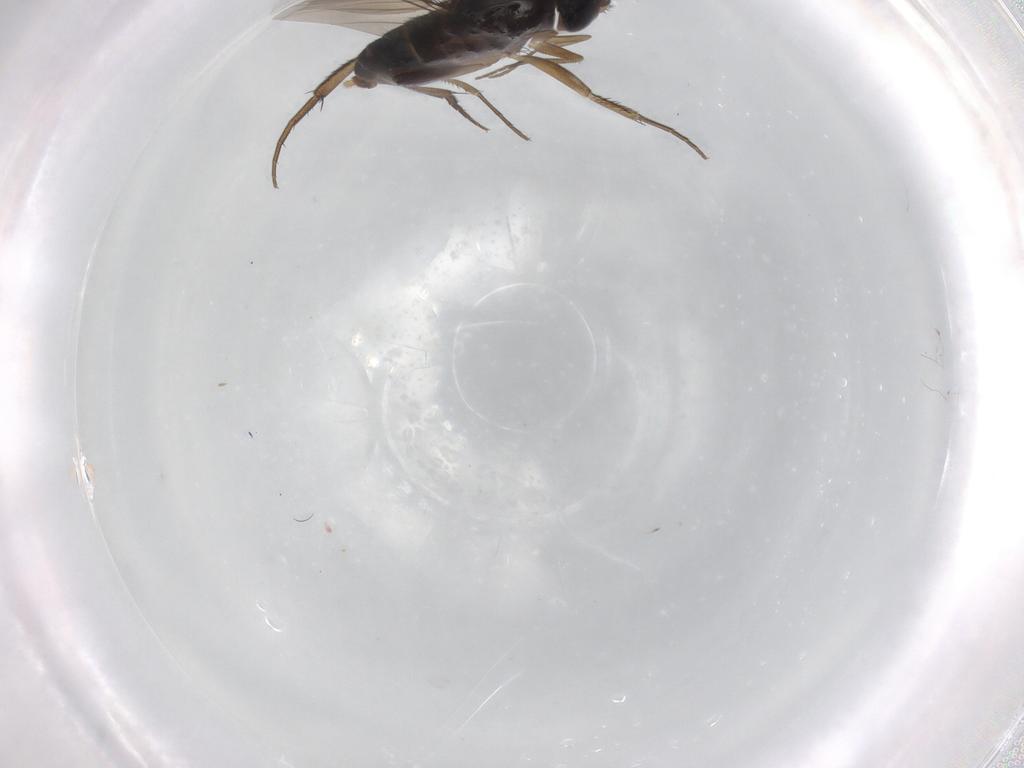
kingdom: Animalia
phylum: Arthropoda
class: Insecta
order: Diptera
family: Phoridae
